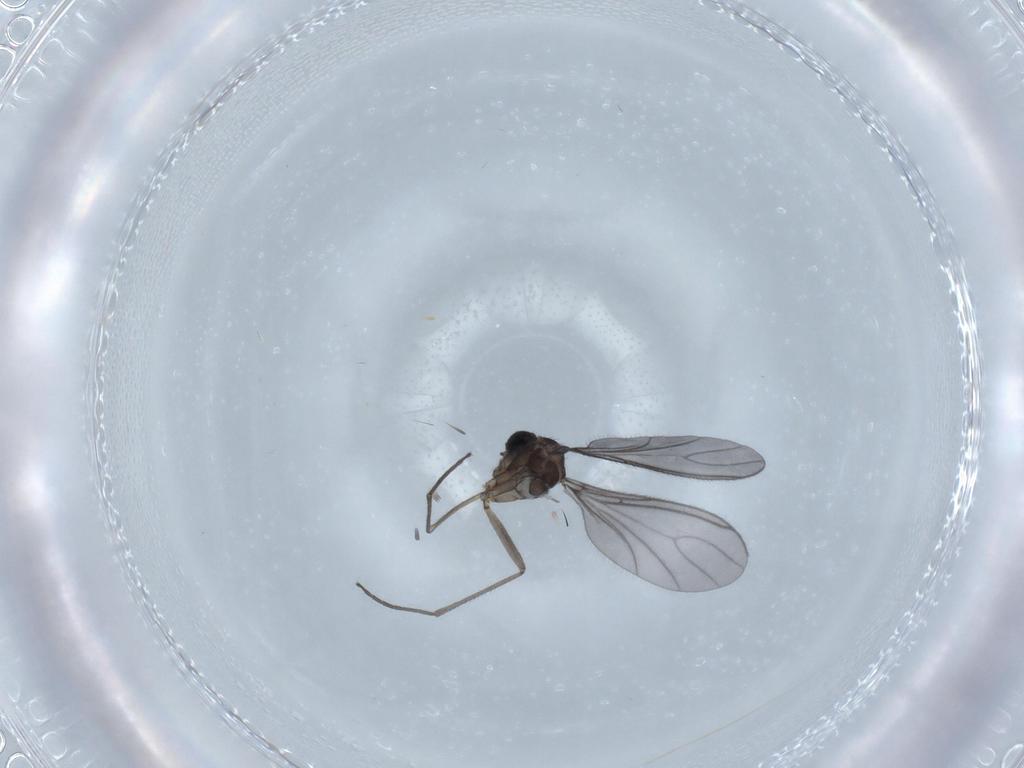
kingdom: Animalia
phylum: Arthropoda
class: Insecta
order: Diptera
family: Sciaridae
